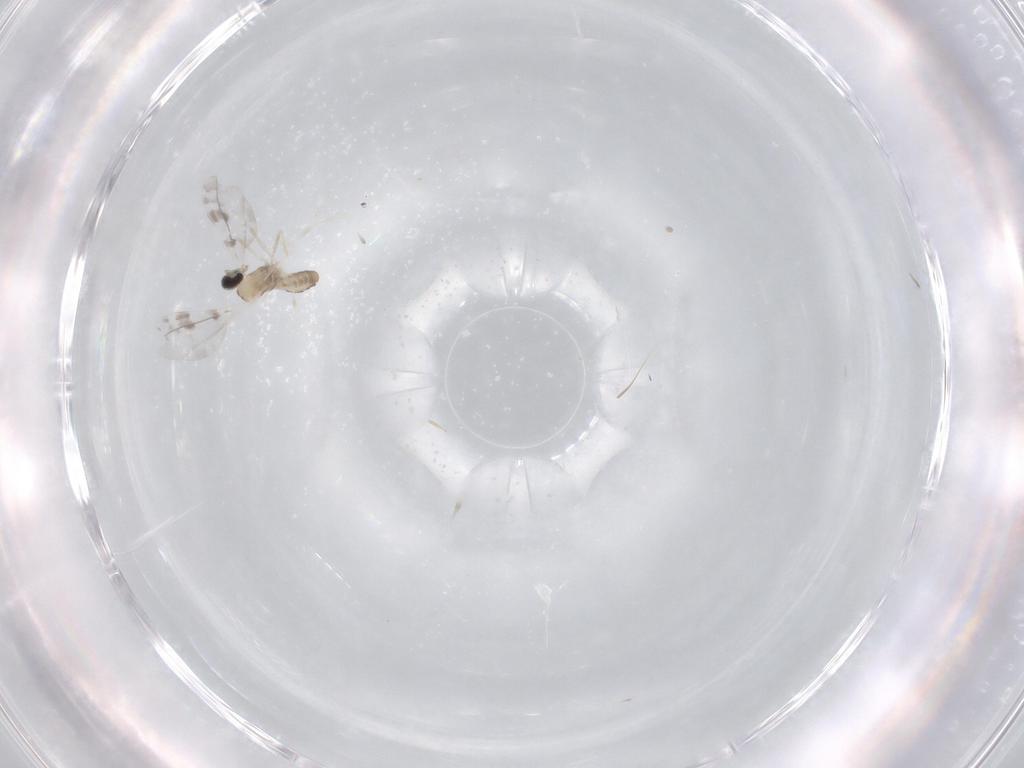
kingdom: Animalia
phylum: Arthropoda
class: Insecta
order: Diptera
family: Cecidomyiidae
